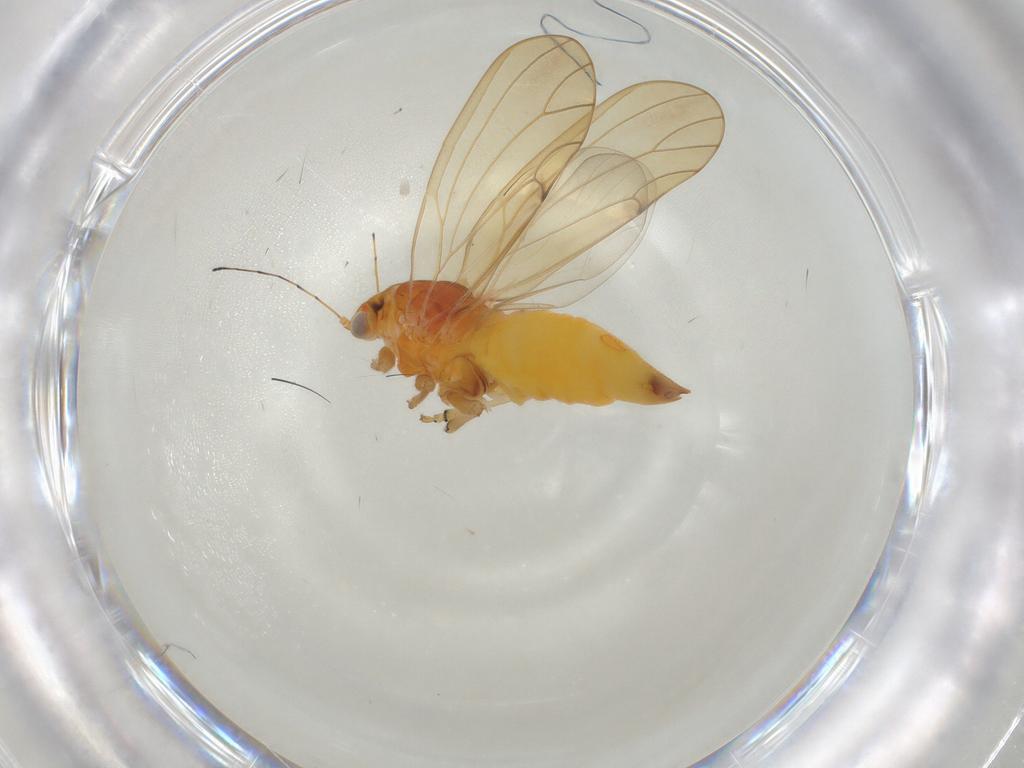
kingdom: Animalia
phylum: Arthropoda
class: Insecta
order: Hemiptera
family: Psylloidea_incertae_sedis
